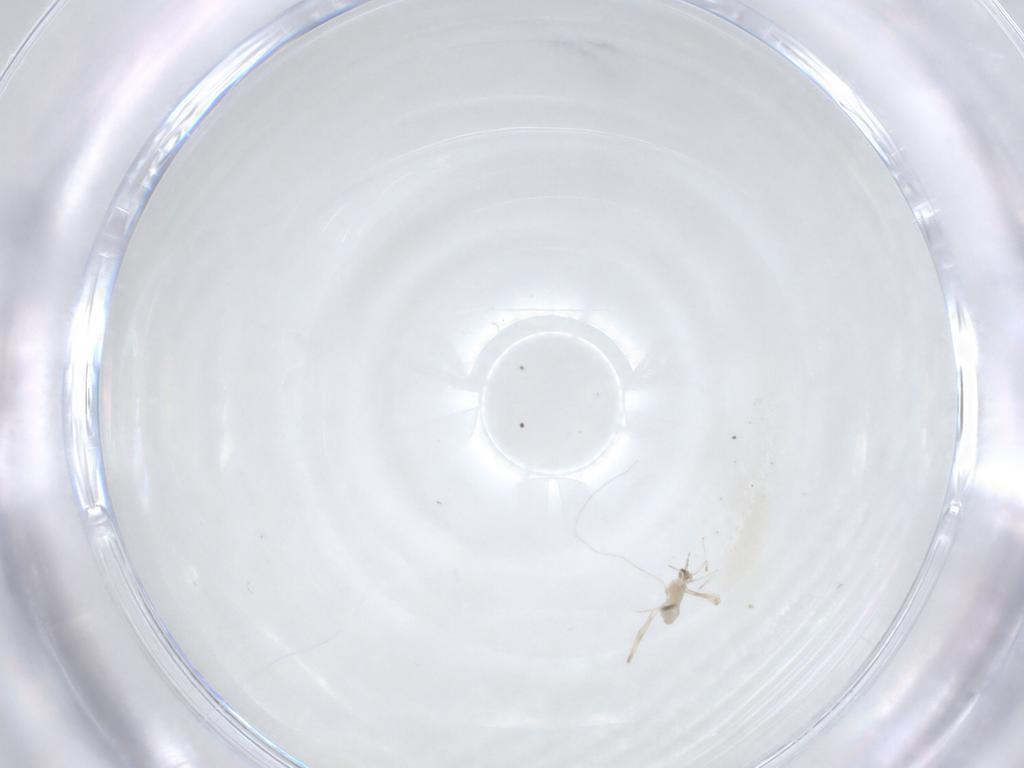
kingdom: Animalia
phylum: Arthropoda
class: Insecta
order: Diptera
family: Cecidomyiidae
